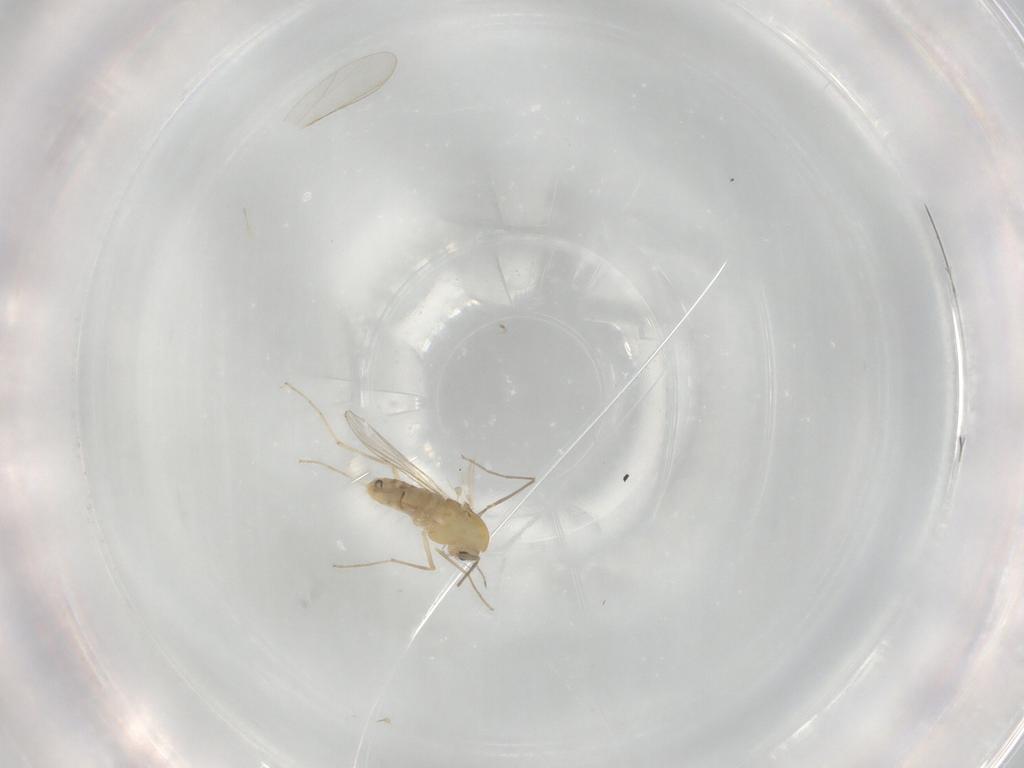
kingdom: Animalia
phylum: Arthropoda
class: Insecta
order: Diptera
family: Chironomidae
